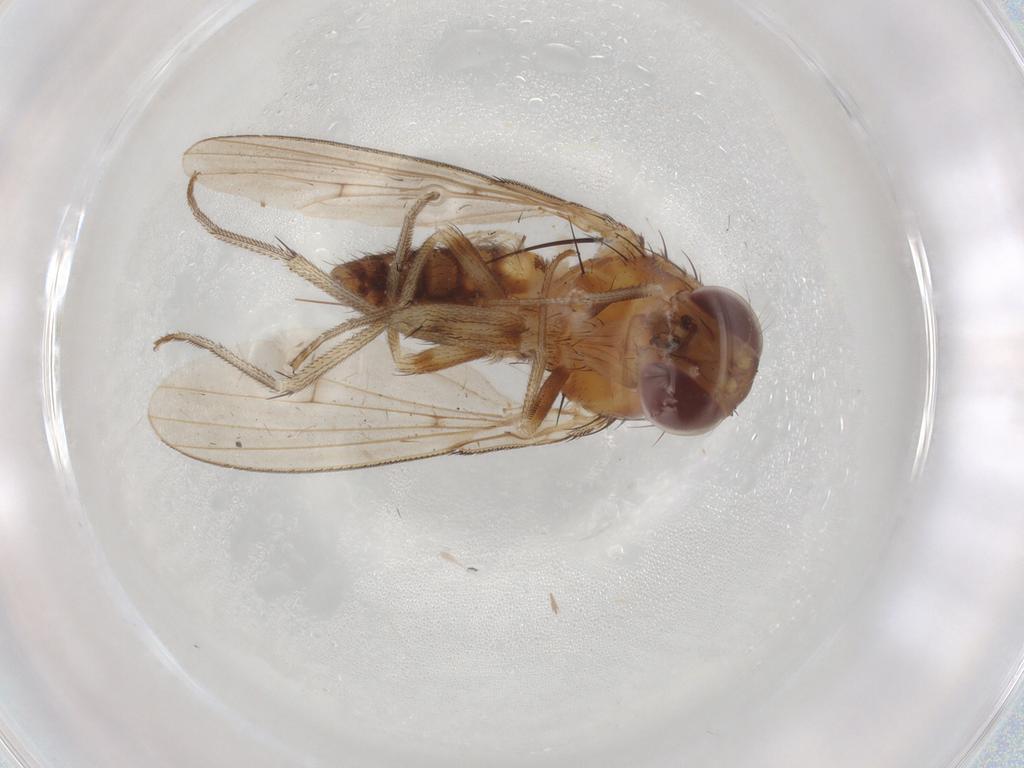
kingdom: Animalia
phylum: Arthropoda
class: Insecta
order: Diptera
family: Curtonotidae
